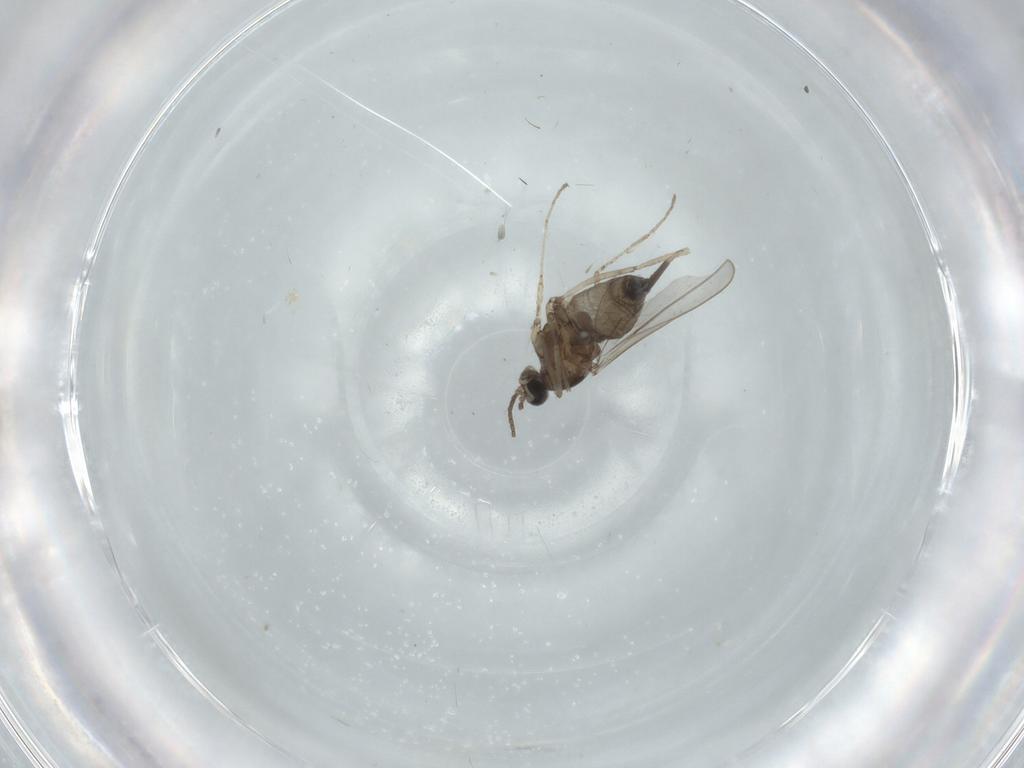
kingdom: Animalia
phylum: Arthropoda
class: Insecta
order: Diptera
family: Cecidomyiidae
